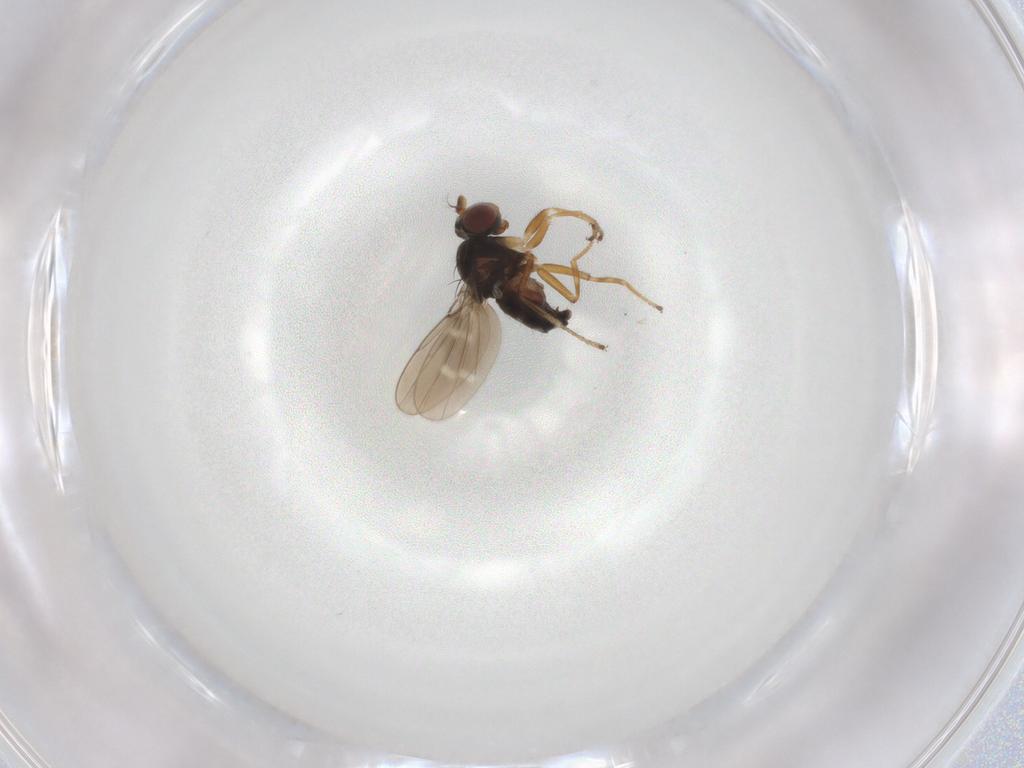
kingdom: Animalia
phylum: Arthropoda
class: Insecta
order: Diptera
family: Ephydridae
